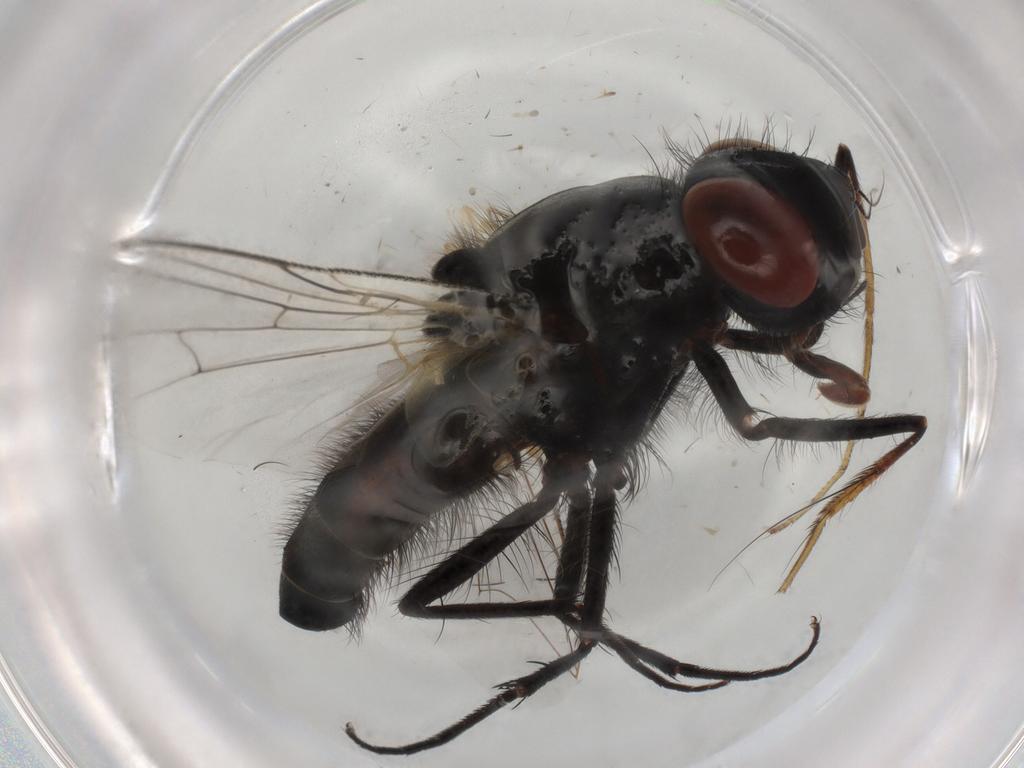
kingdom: Animalia
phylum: Arthropoda
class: Insecta
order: Diptera
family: Sarcophagidae
